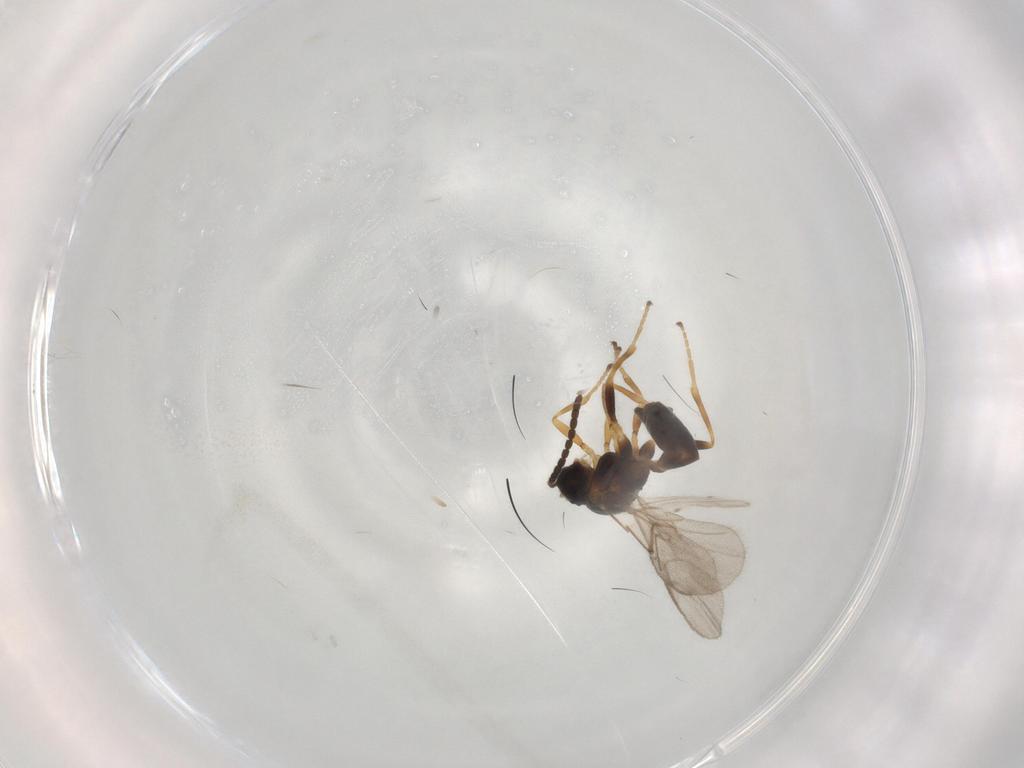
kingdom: Animalia
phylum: Arthropoda
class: Insecta
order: Hymenoptera
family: Braconidae
